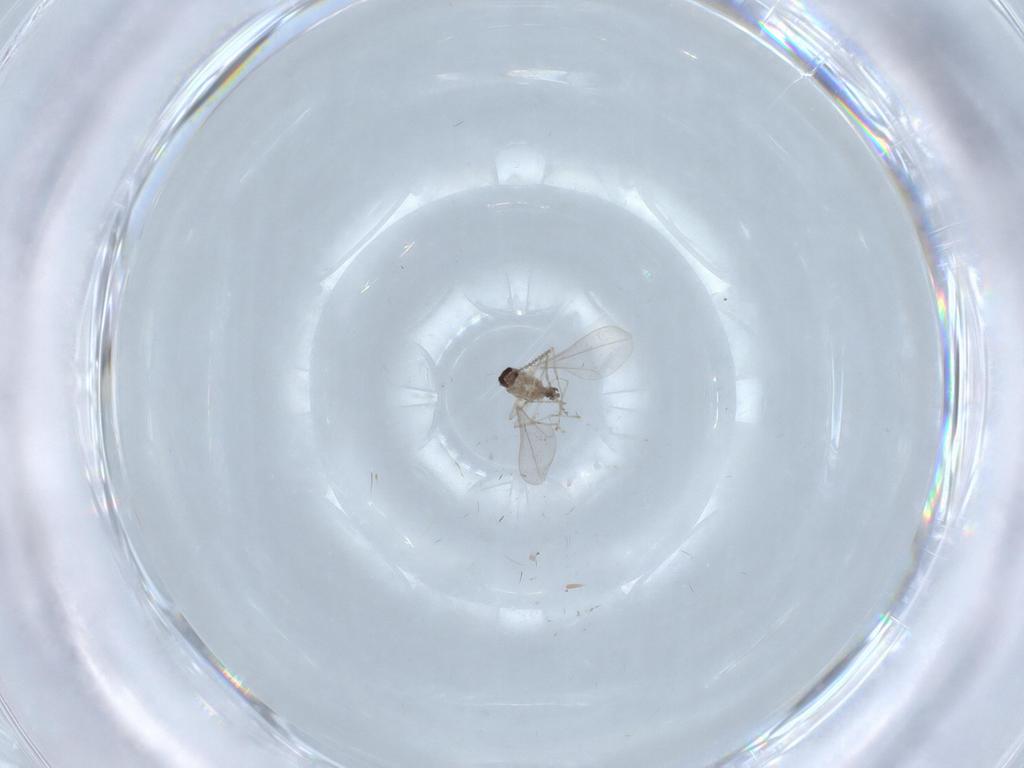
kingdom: Animalia
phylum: Arthropoda
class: Insecta
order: Diptera
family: Cecidomyiidae
